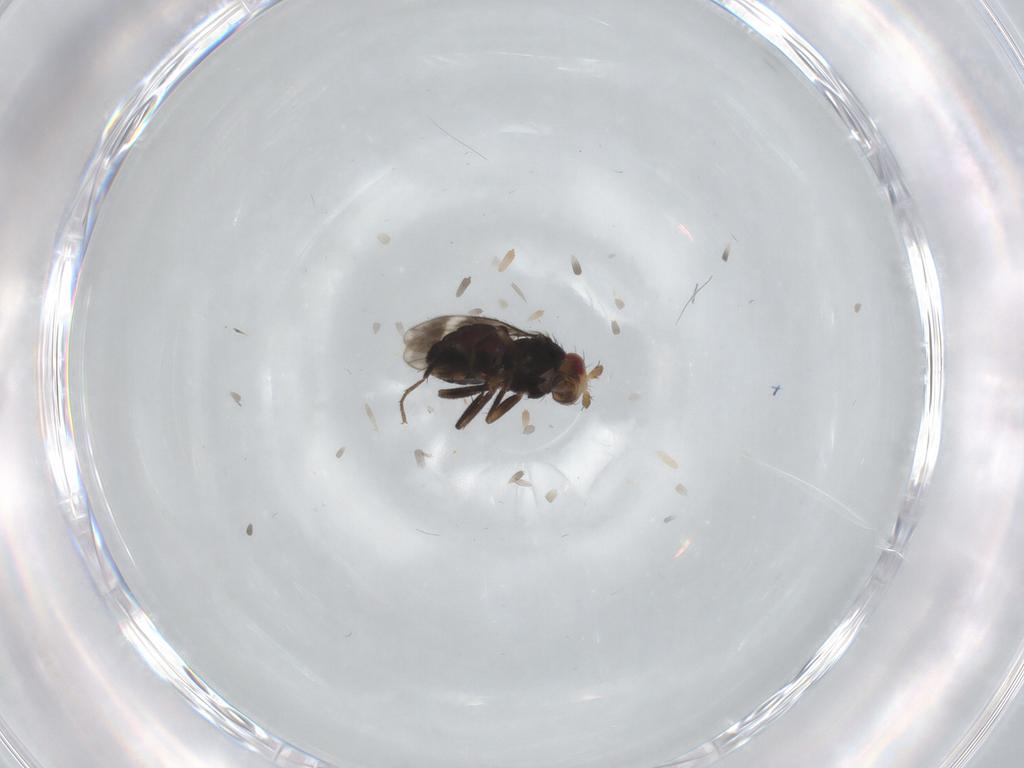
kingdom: Animalia
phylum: Arthropoda
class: Insecta
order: Diptera
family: Sphaeroceridae
